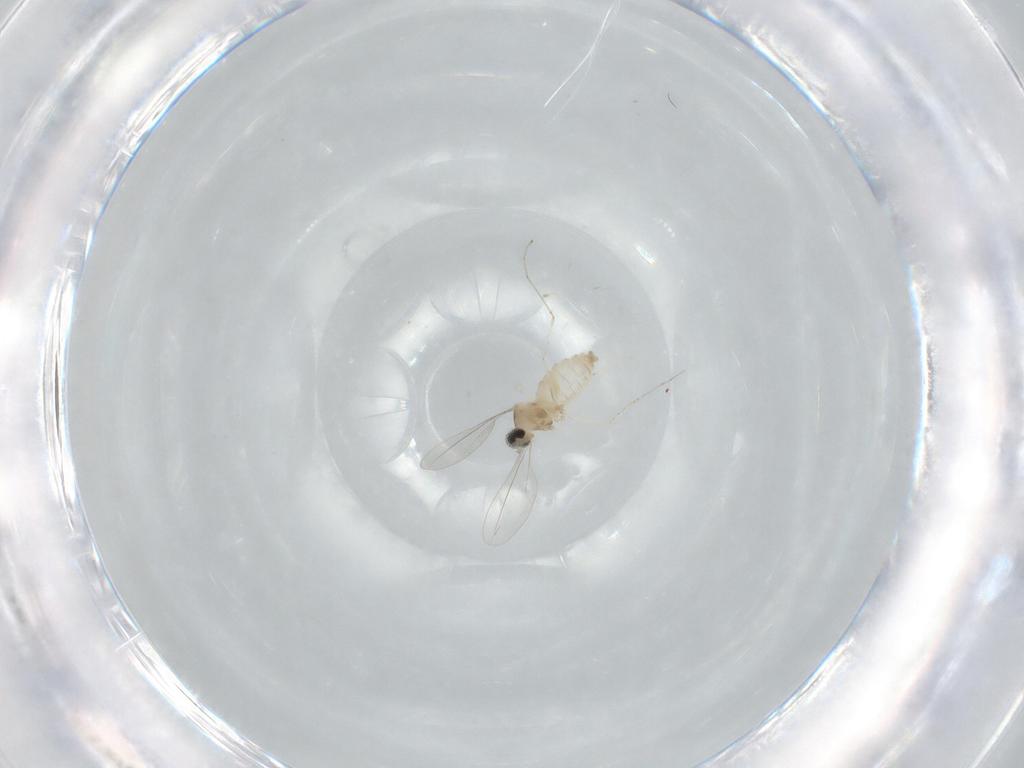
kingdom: Animalia
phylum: Arthropoda
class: Insecta
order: Diptera
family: Cecidomyiidae
